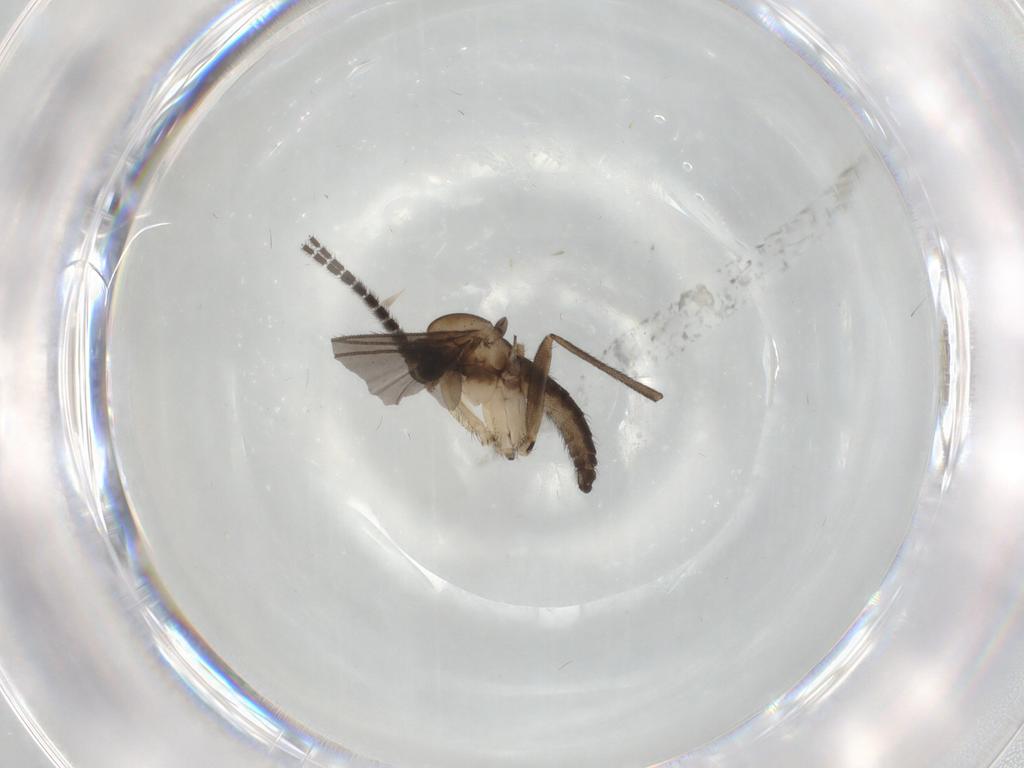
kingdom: Animalia
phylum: Arthropoda
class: Insecta
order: Diptera
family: Sciaridae
